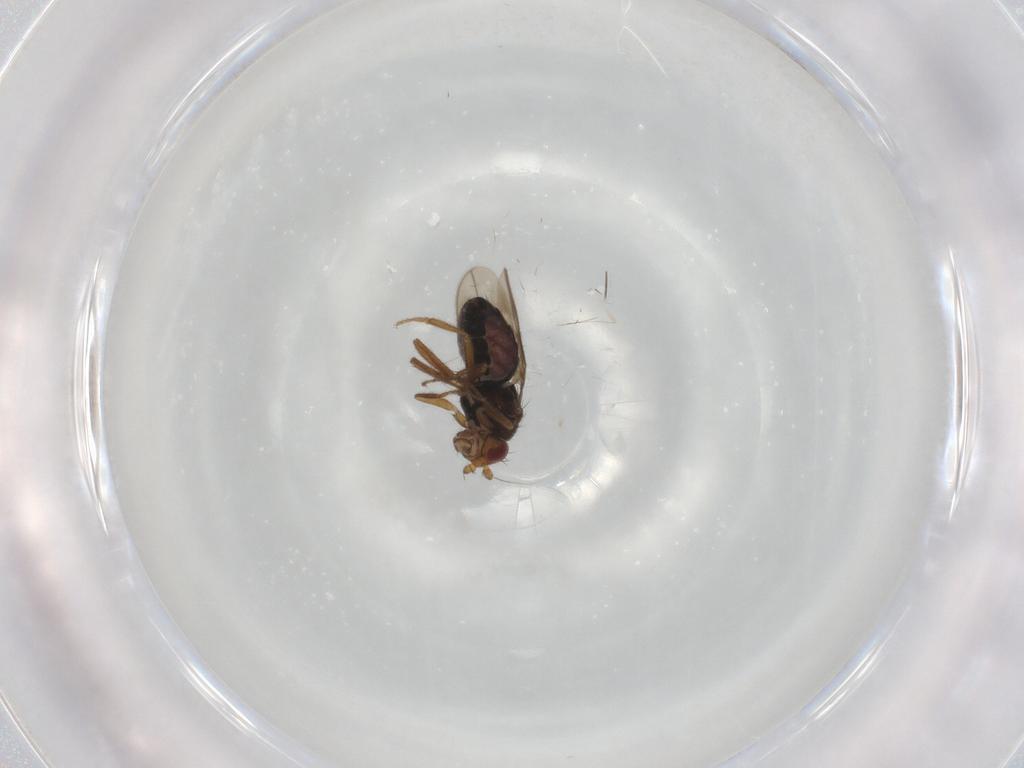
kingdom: Animalia
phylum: Arthropoda
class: Insecta
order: Diptera
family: Sphaeroceridae
